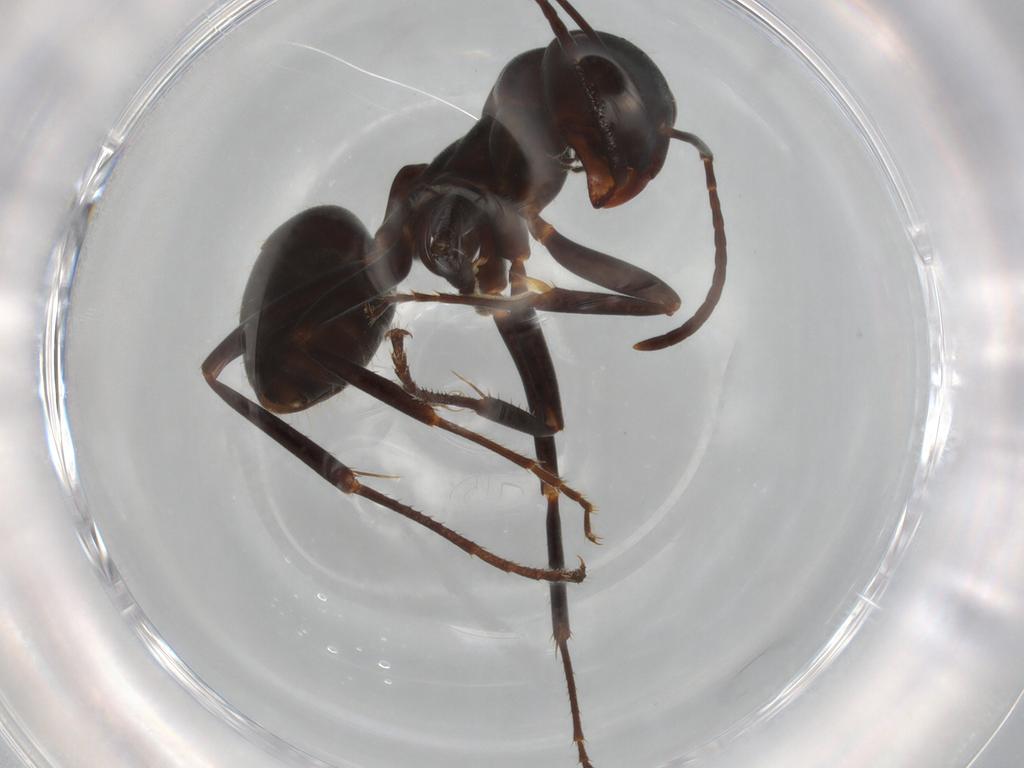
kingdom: Animalia
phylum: Arthropoda
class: Insecta
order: Hymenoptera
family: Formicidae
